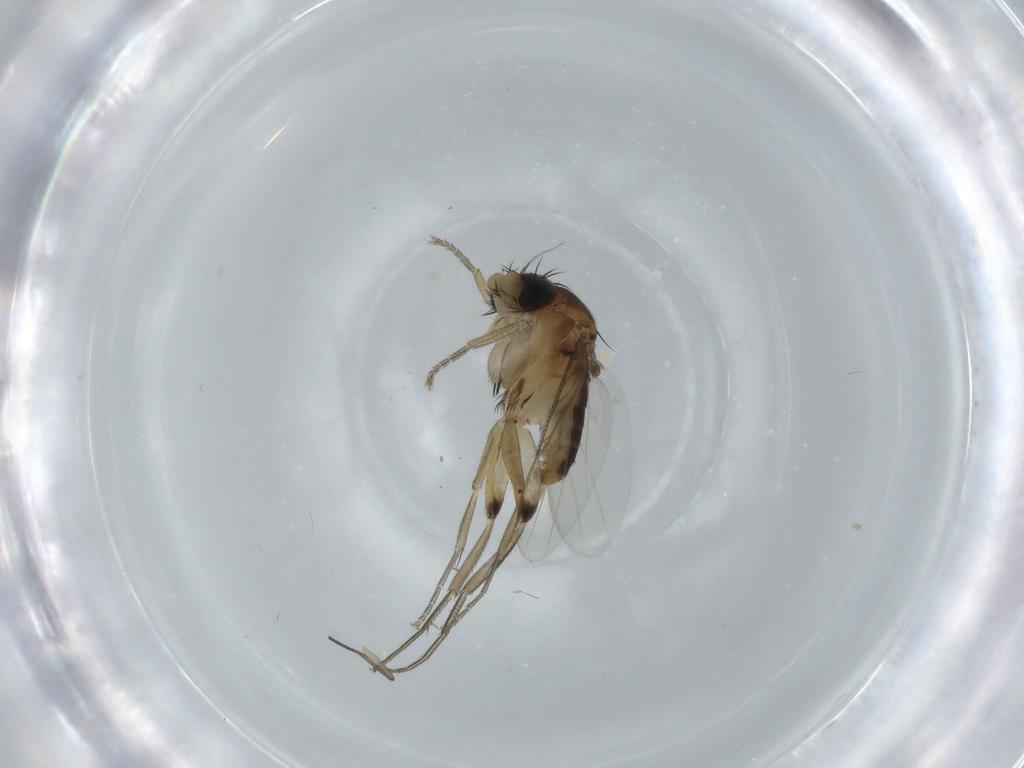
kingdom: Animalia
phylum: Arthropoda
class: Insecta
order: Diptera
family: Phoridae
